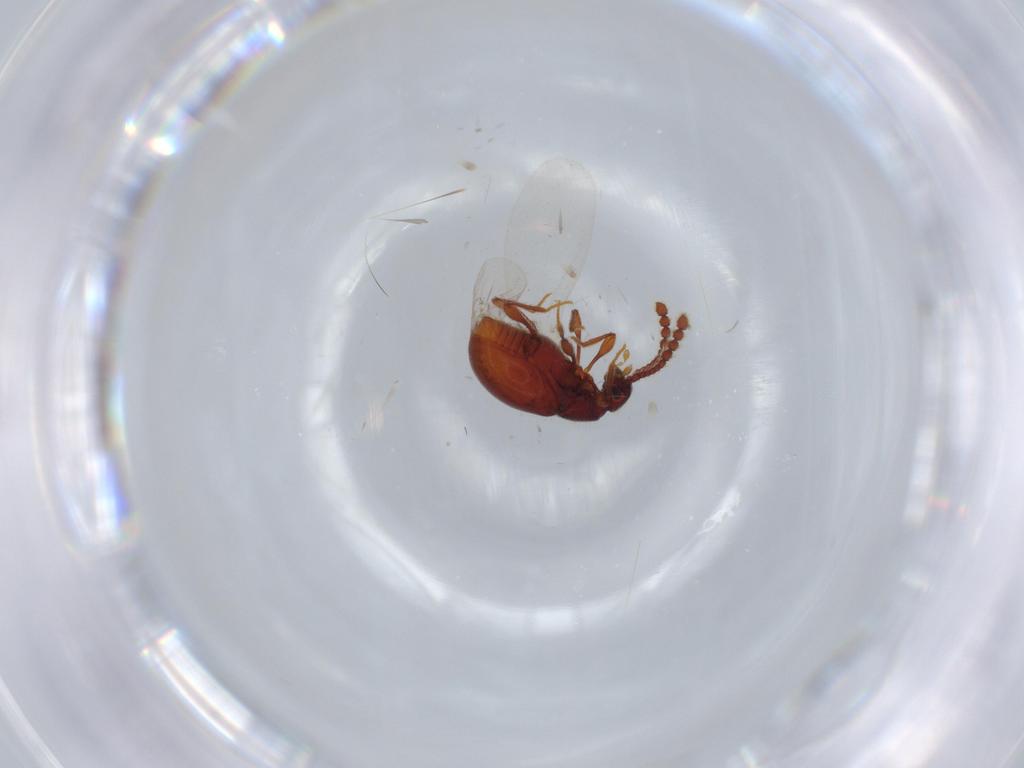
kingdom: Animalia
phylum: Arthropoda
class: Insecta
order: Coleoptera
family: Staphylinidae
